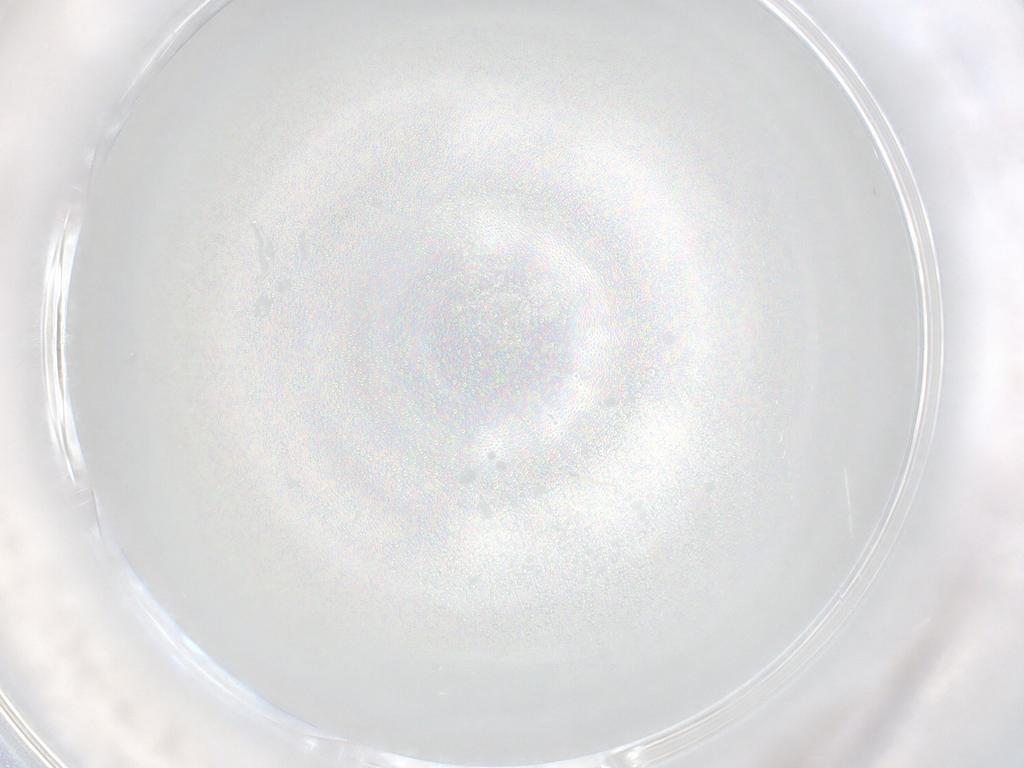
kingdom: Animalia
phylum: Arthropoda
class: Insecta
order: Diptera
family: Cecidomyiidae
